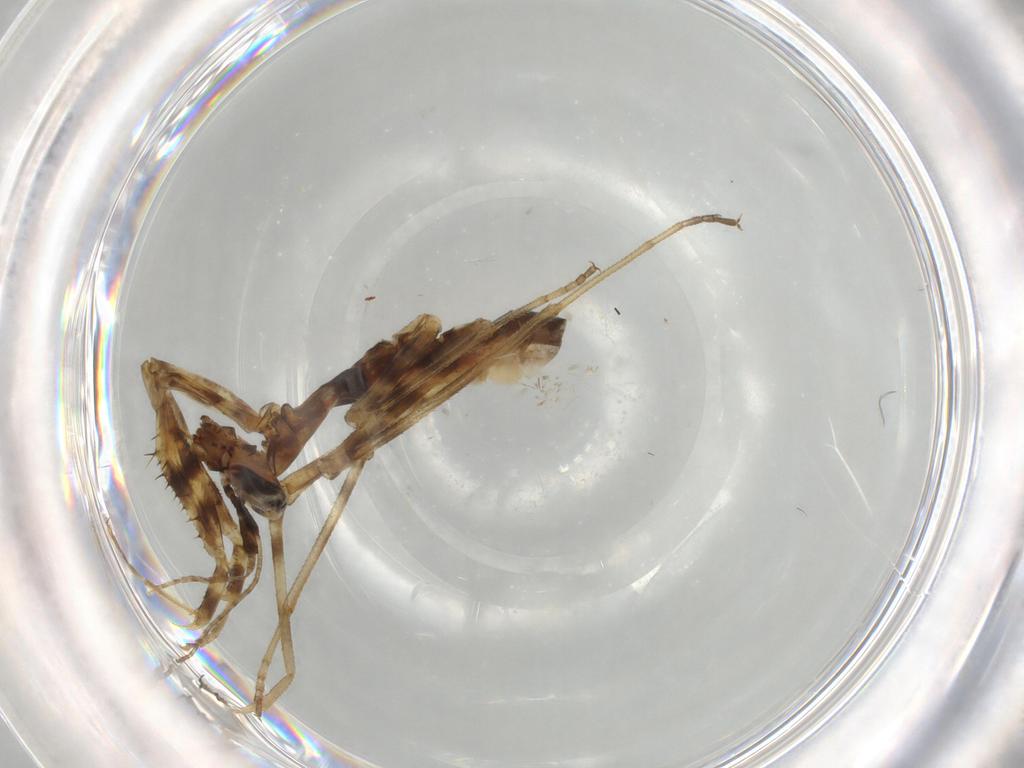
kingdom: Animalia
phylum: Arthropoda
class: Insecta
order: Mantodea
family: Miomantidae
